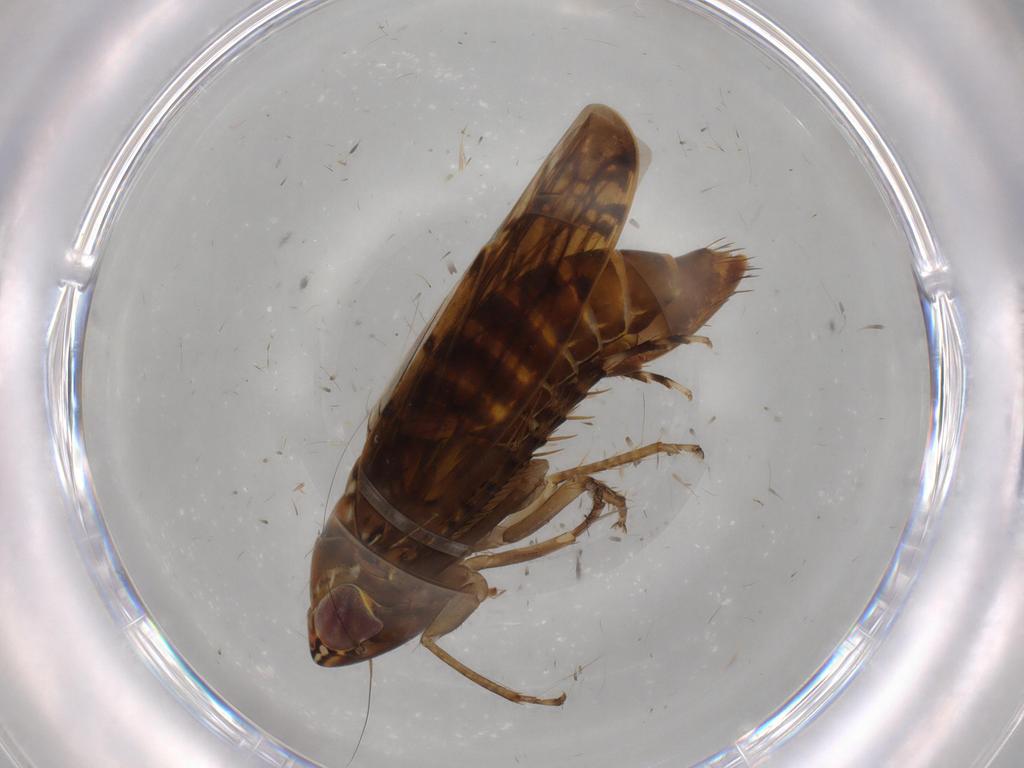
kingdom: Animalia
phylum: Arthropoda
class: Insecta
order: Hemiptera
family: Cicadellidae
